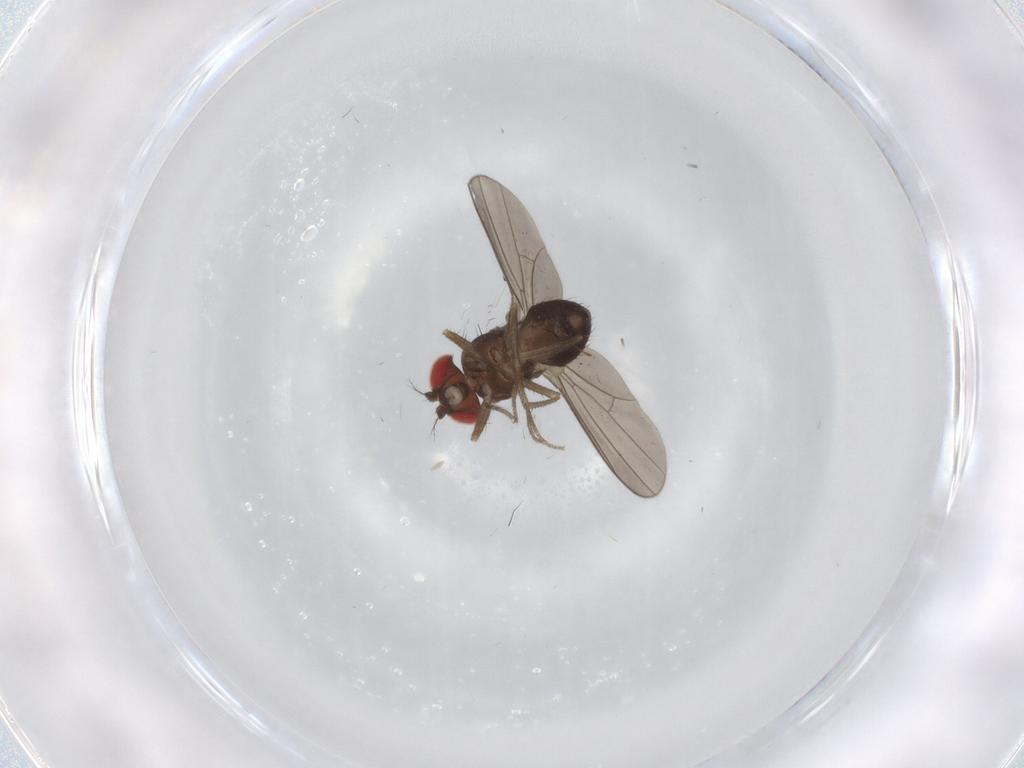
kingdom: Animalia
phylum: Arthropoda
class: Insecta
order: Diptera
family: Drosophilidae
